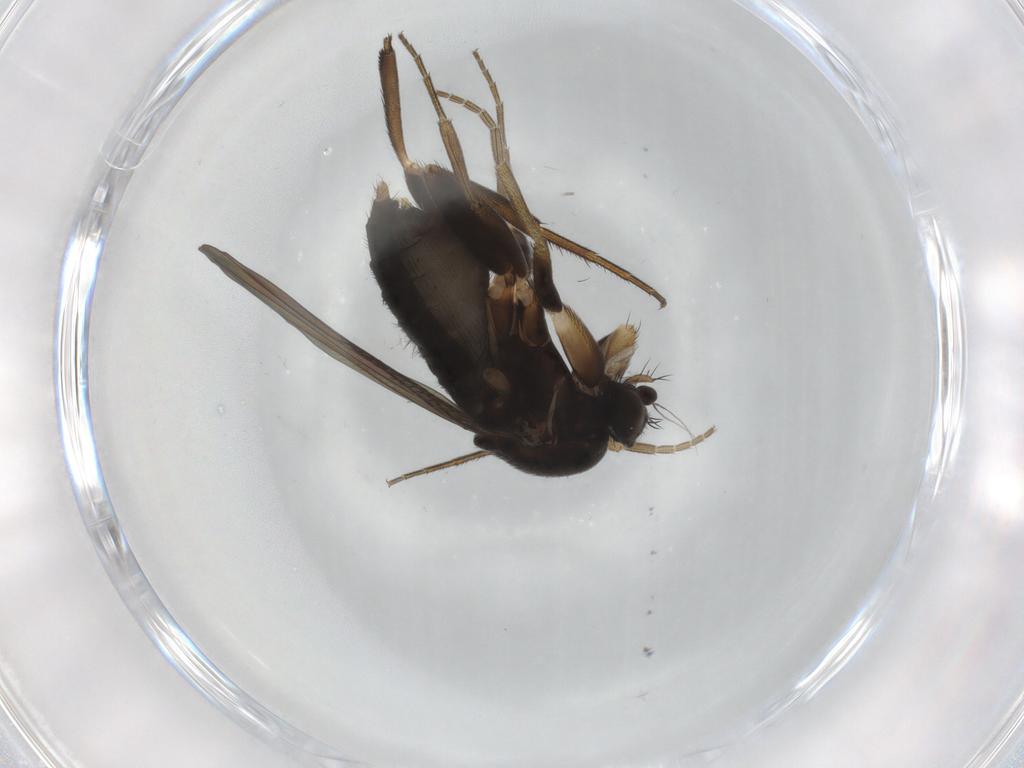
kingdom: Animalia
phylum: Arthropoda
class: Insecta
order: Diptera
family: Phoridae
